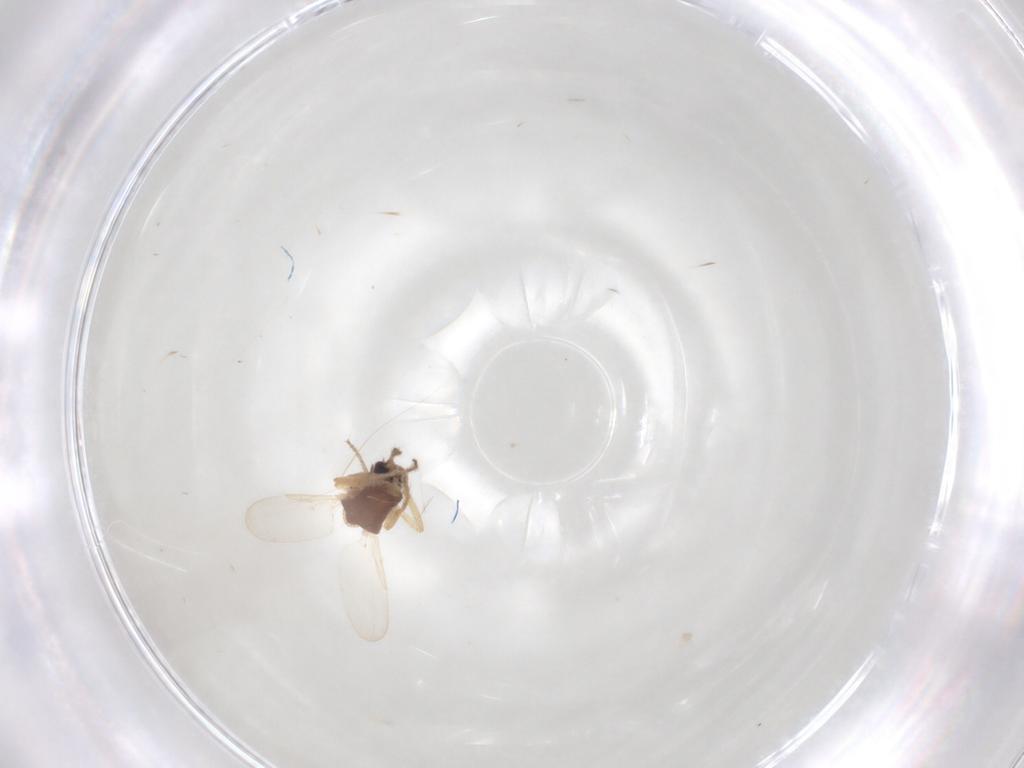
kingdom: Animalia
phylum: Arthropoda
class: Insecta
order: Diptera
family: Ceratopogonidae
